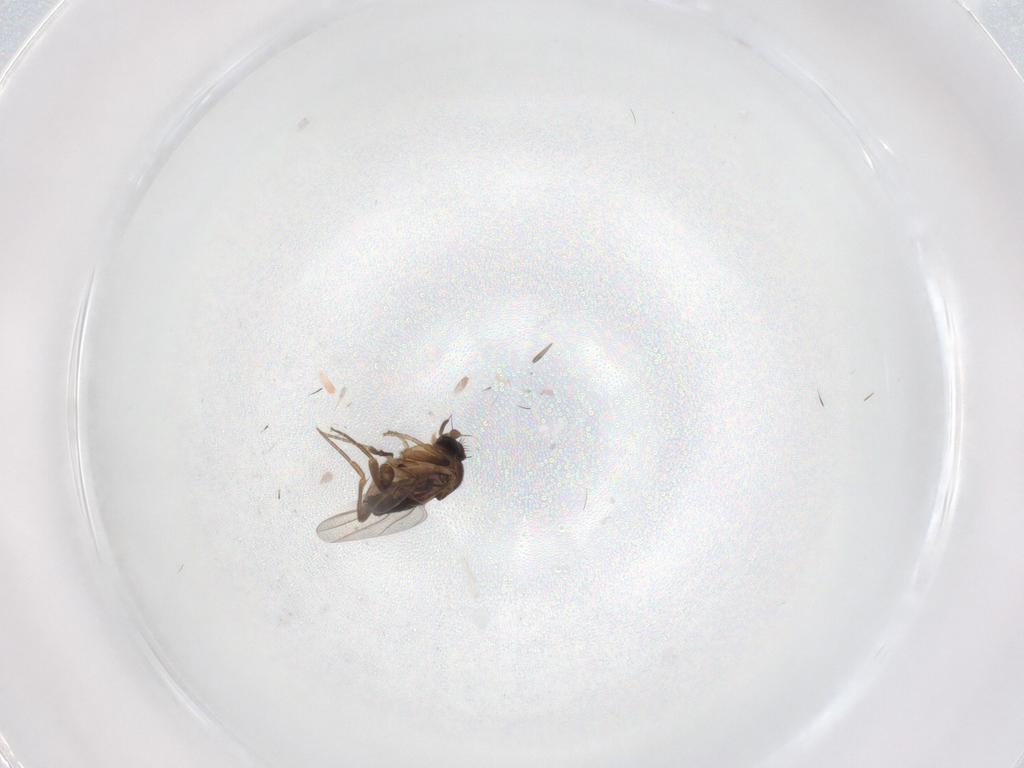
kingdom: Animalia
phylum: Arthropoda
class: Insecta
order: Diptera
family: Phoridae
